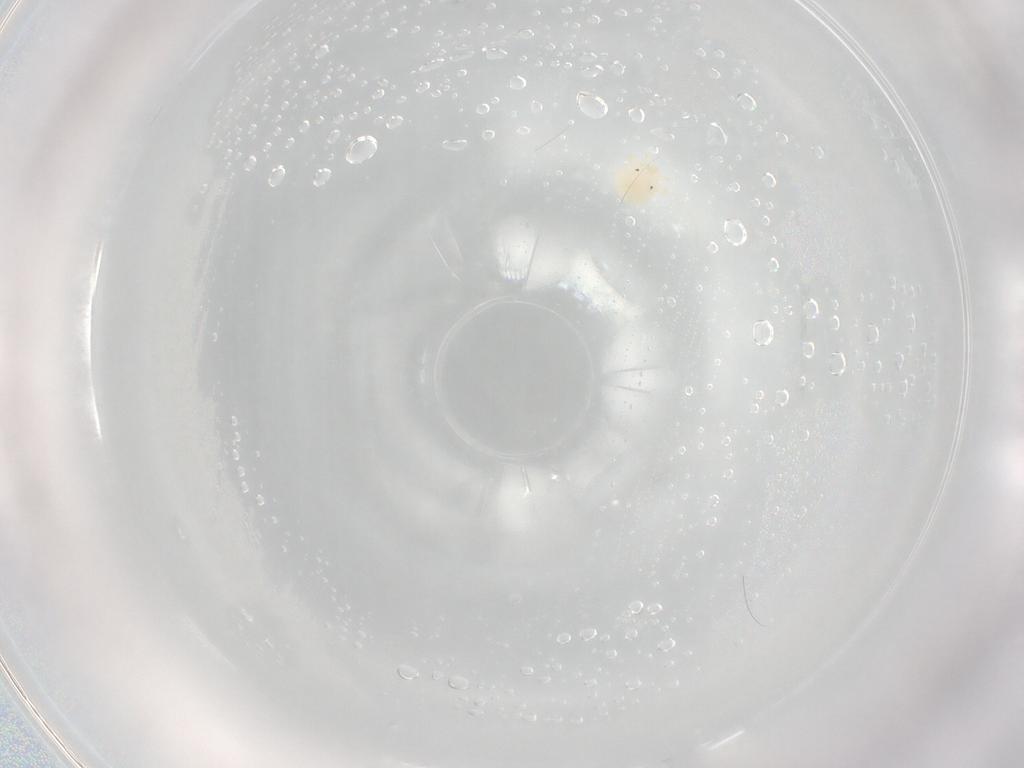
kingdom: Animalia
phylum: Arthropoda
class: Arachnida
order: Trombidiformes
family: Sperchontidae
